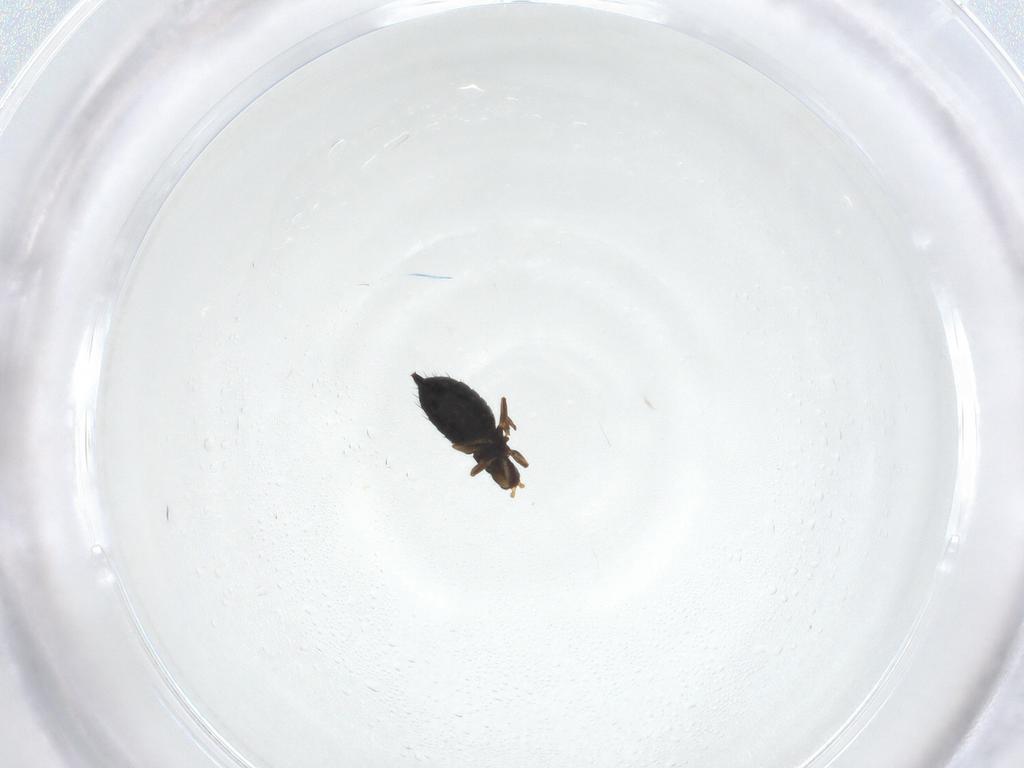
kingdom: Animalia
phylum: Arthropoda
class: Insecta
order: Thysanoptera
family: Phlaeothripidae
